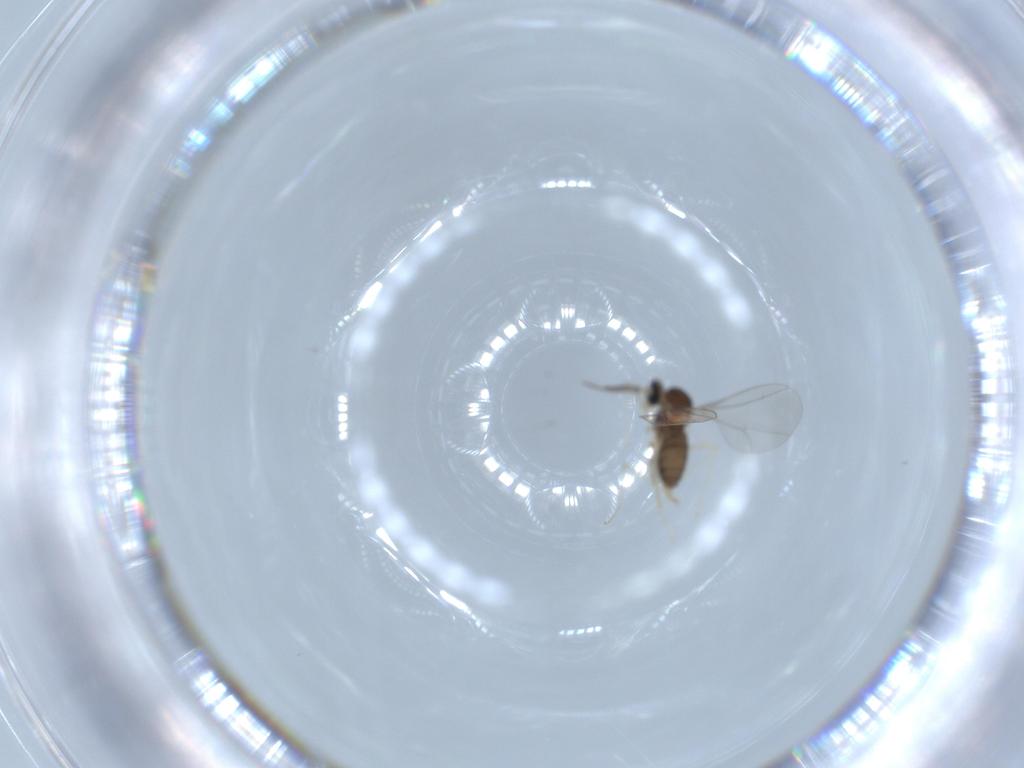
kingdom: Animalia
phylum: Arthropoda
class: Insecta
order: Diptera
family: Cecidomyiidae
